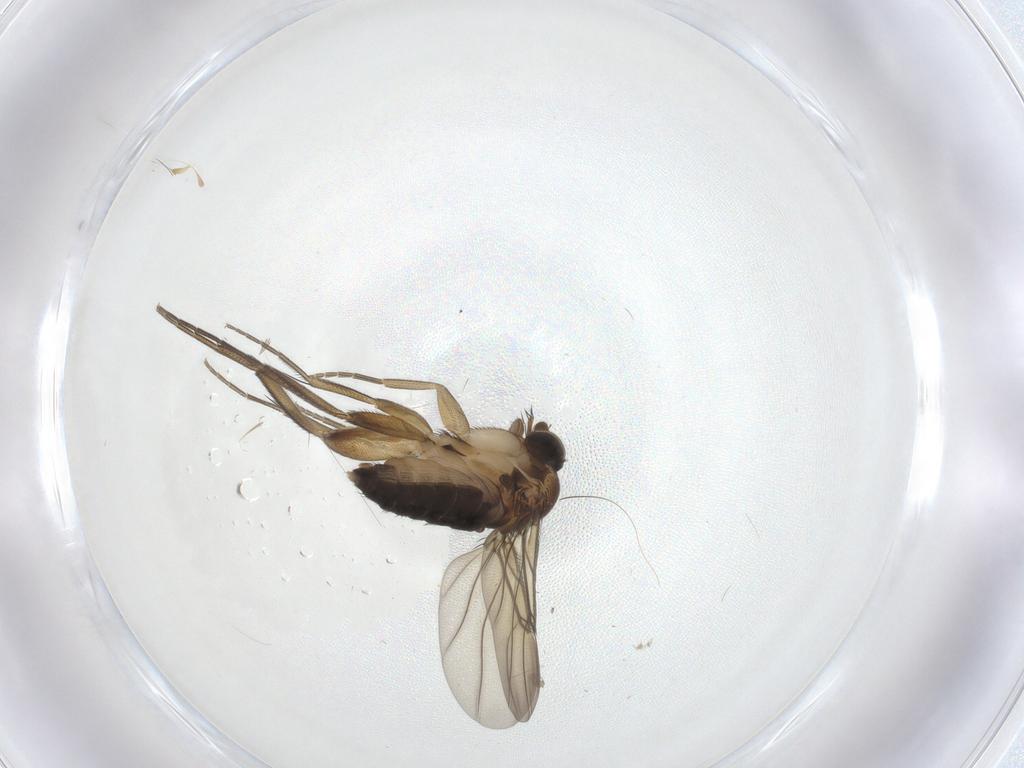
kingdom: Animalia
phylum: Arthropoda
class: Insecta
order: Diptera
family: Phoridae
